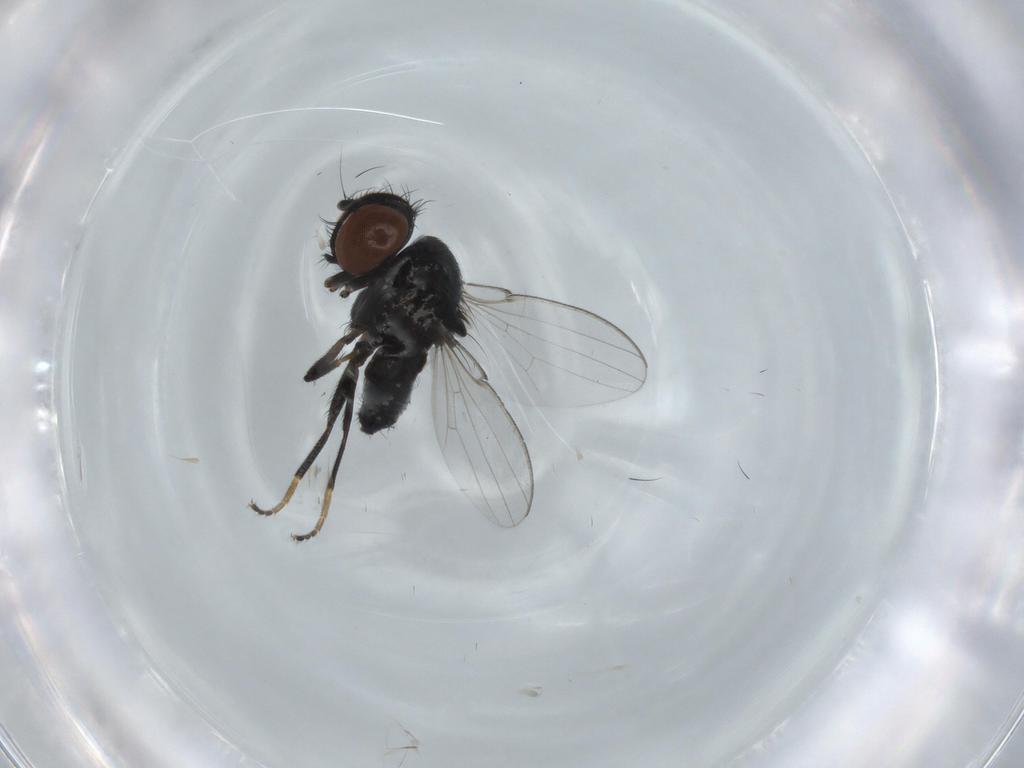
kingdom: Animalia
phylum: Arthropoda
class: Insecta
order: Diptera
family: Milichiidae
